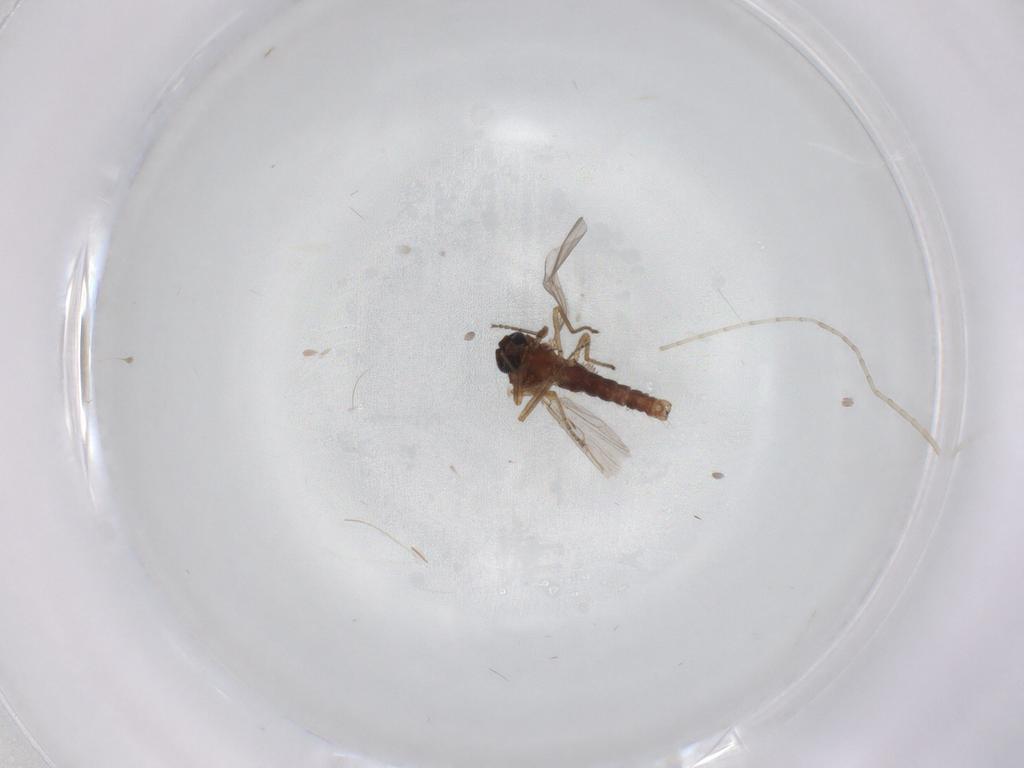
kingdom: Animalia
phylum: Arthropoda
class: Insecta
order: Diptera
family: Ceratopogonidae
